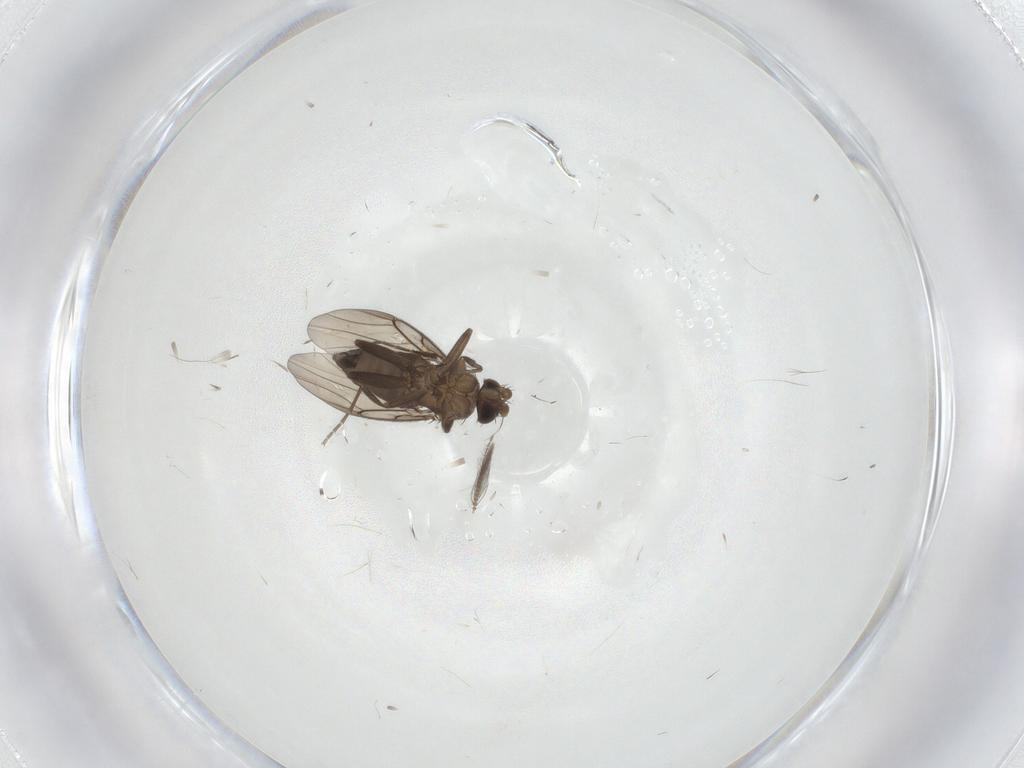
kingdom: Animalia
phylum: Arthropoda
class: Insecta
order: Diptera
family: Phoridae
